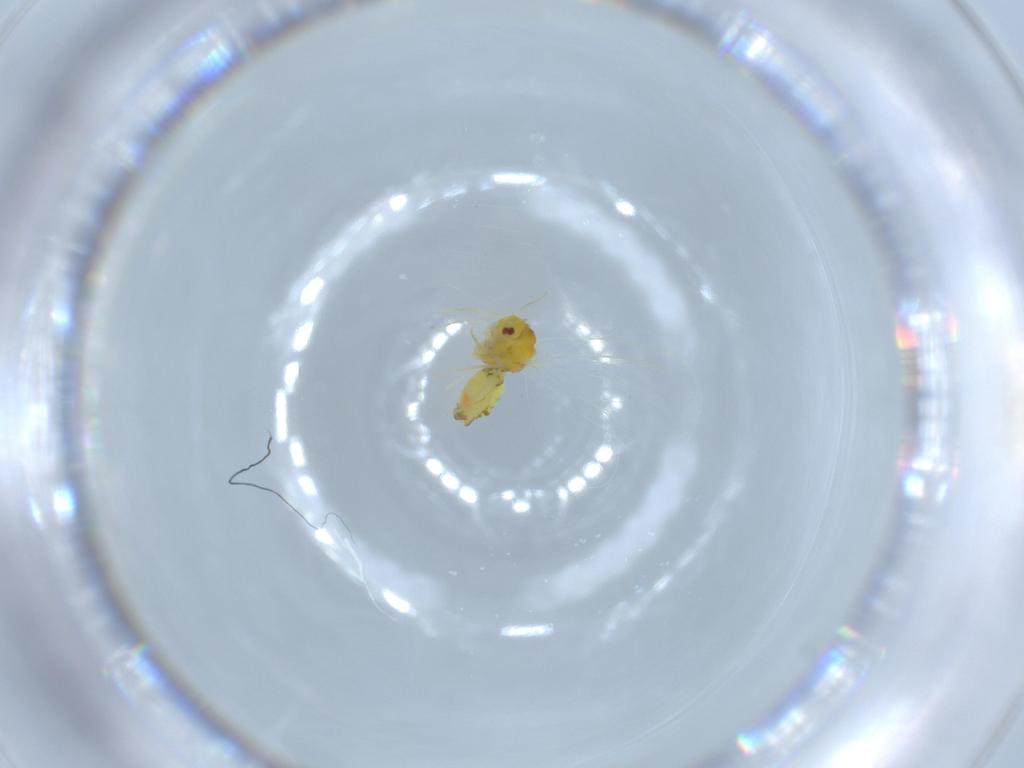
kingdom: Animalia
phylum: Arthropoda
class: Insecta
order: Hemiptera
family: Aleyrodidae
